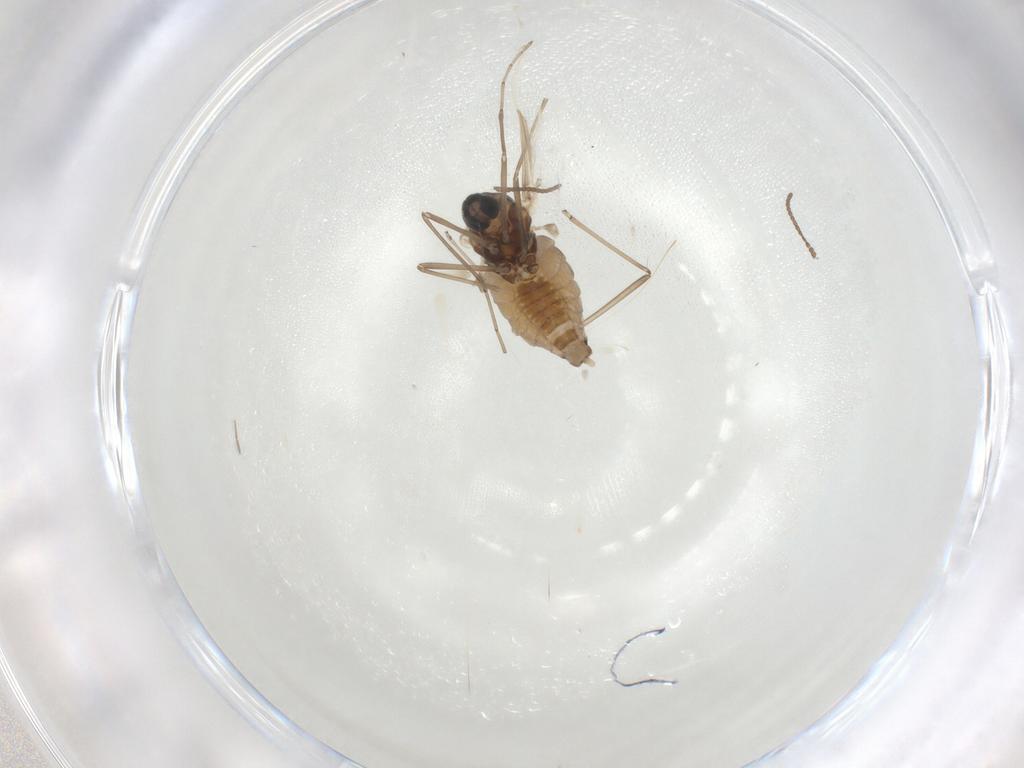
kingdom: Animalia
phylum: Arthropoda
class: Insecta
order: Diptera
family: Cecidomyiidae
